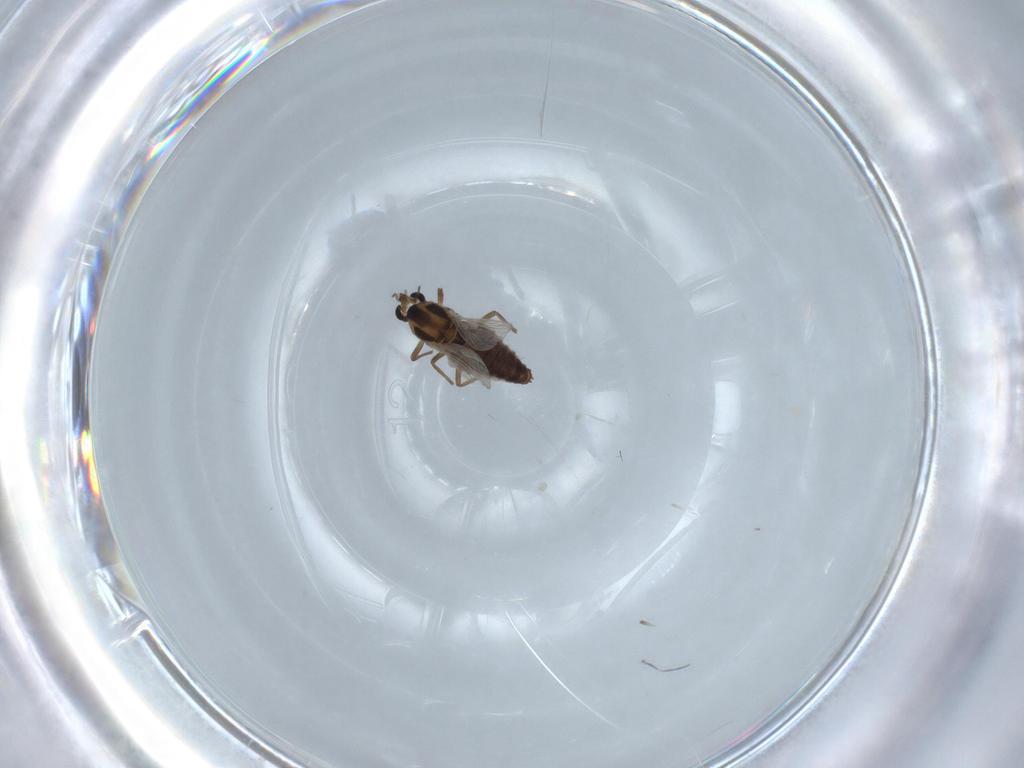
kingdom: Animalia
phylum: Arthropoda
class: Insecta
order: Diptera
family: Chironomidae
